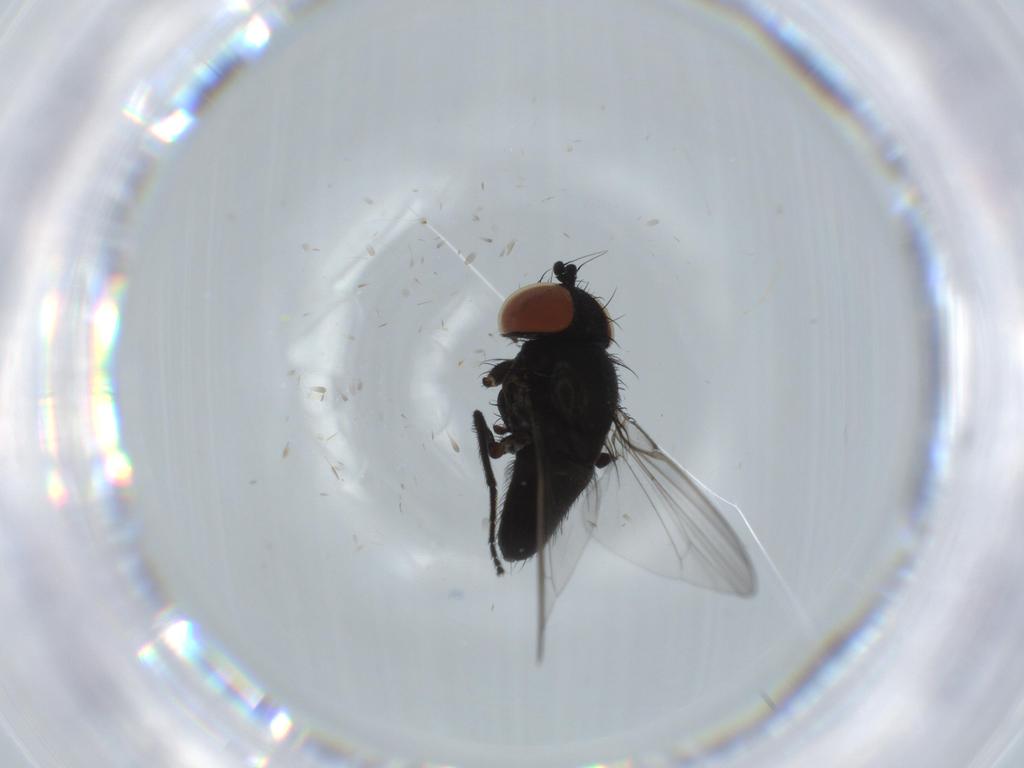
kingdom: Animalia
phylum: Arthropoda
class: Insecta
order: Diptera
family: Milichiidae
